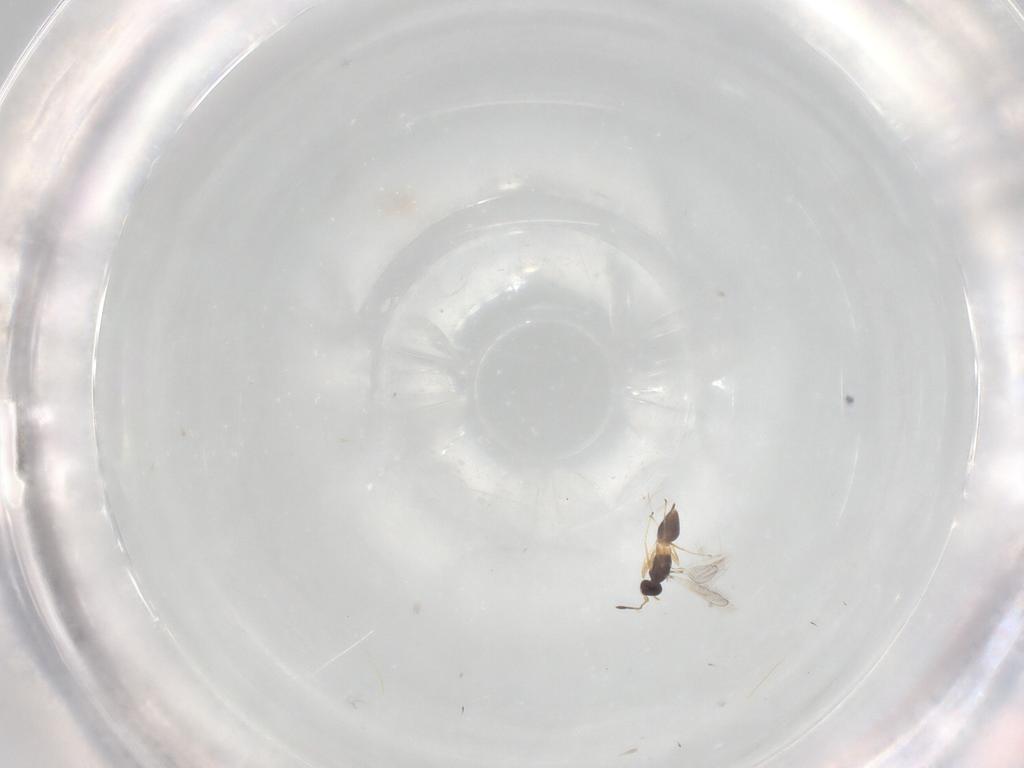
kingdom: Animalia
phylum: Arthropoda
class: Insecta
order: Hymenoptera
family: Mymaridae
